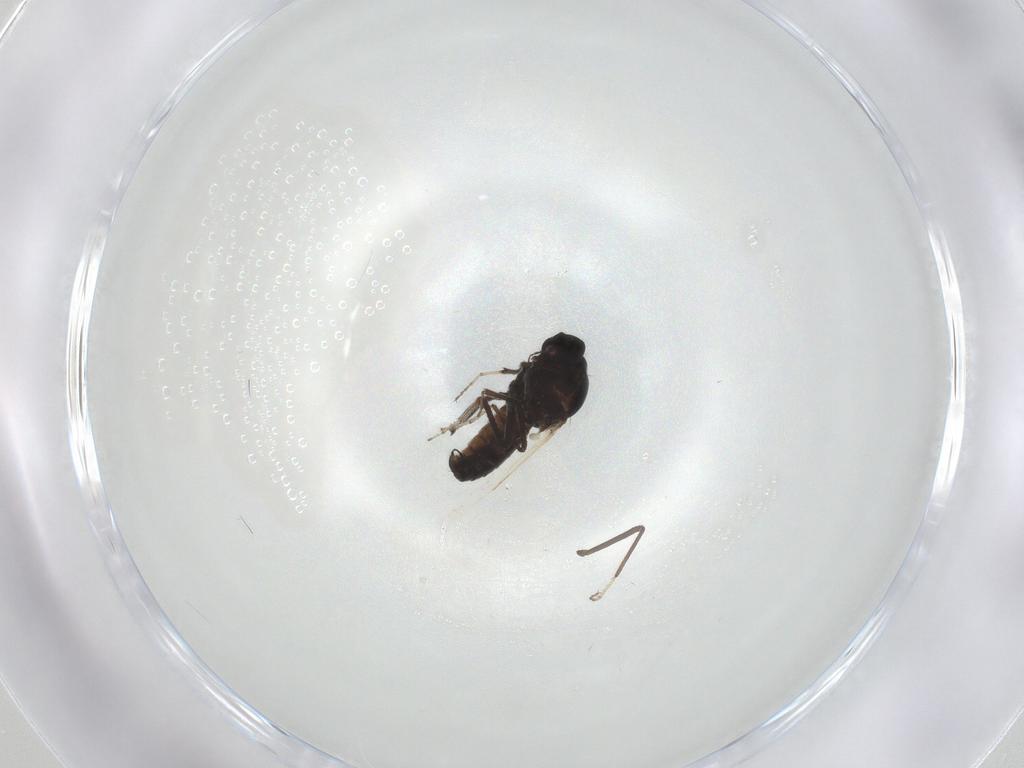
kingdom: Animalia
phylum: Arthropoda
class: Insecta
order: Diptera
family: Ceratopogonidae
